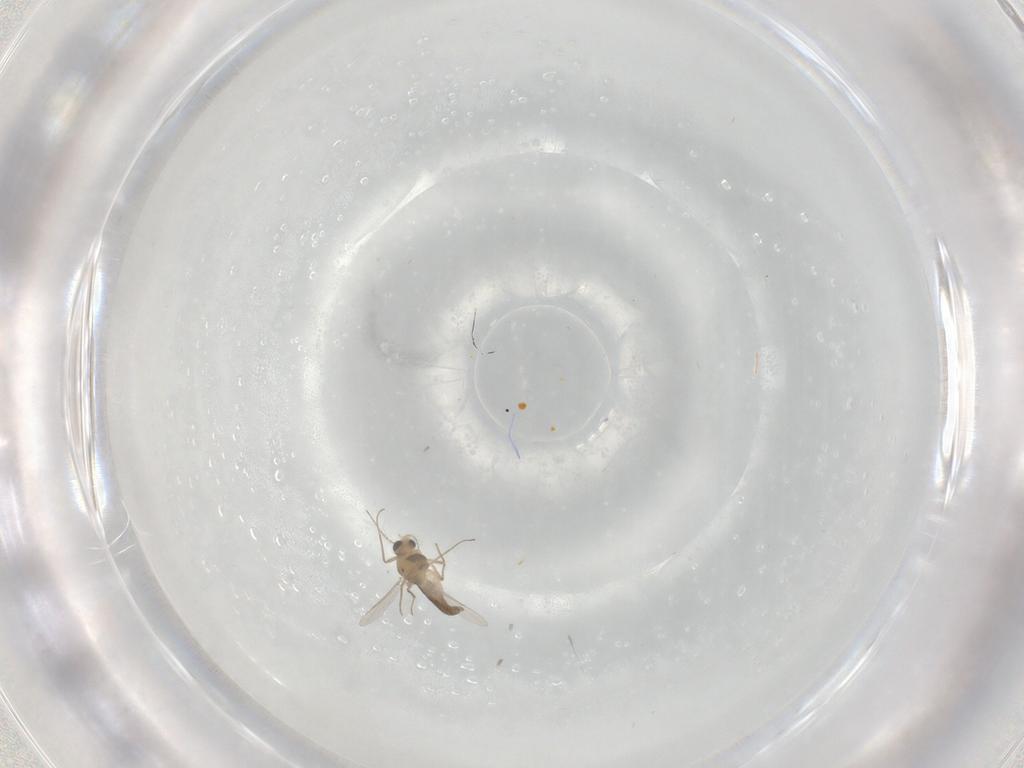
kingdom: Animalia
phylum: Arthropoda
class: Insecta
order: Diptera
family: Chironomidae
